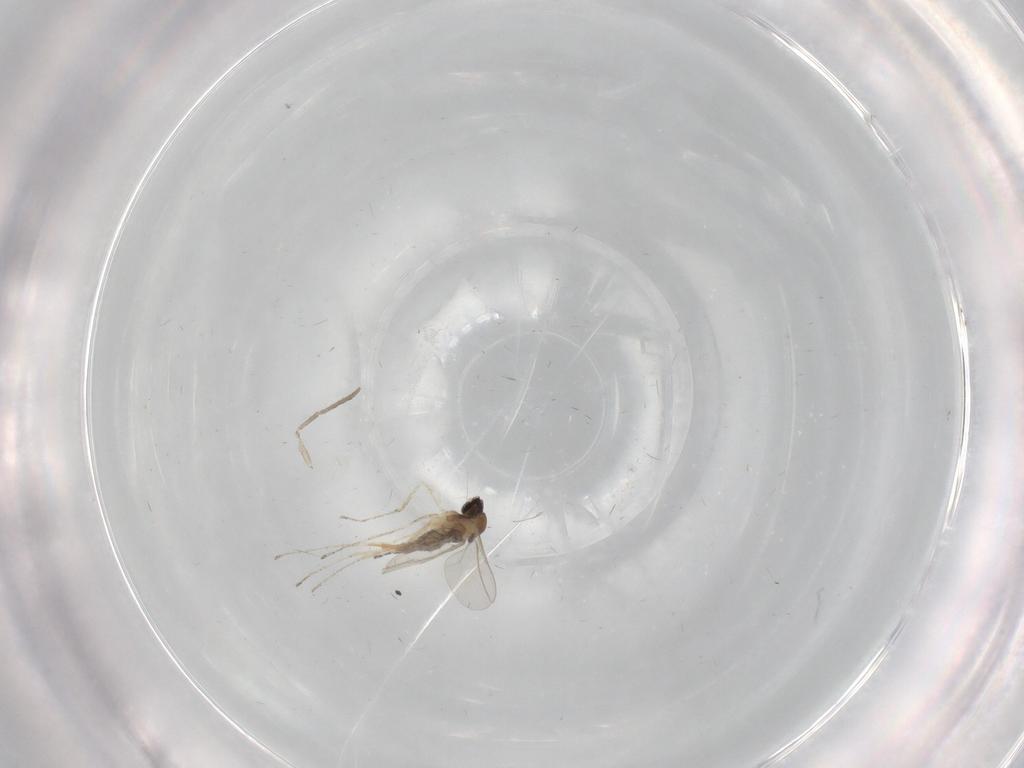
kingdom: Animalia
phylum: Arthropoda
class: Insecta
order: Diptera
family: Cecidomyiidae
